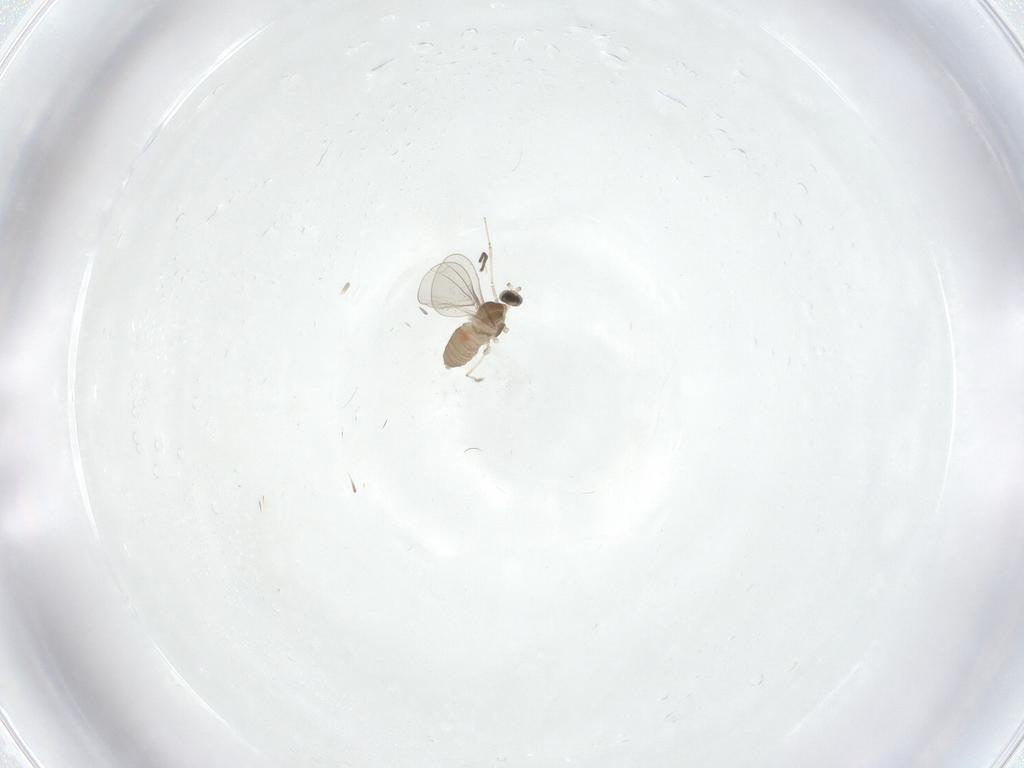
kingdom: Animalia
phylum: Arthropoda
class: Insecta
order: Diptera
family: Cecidomyiidae
